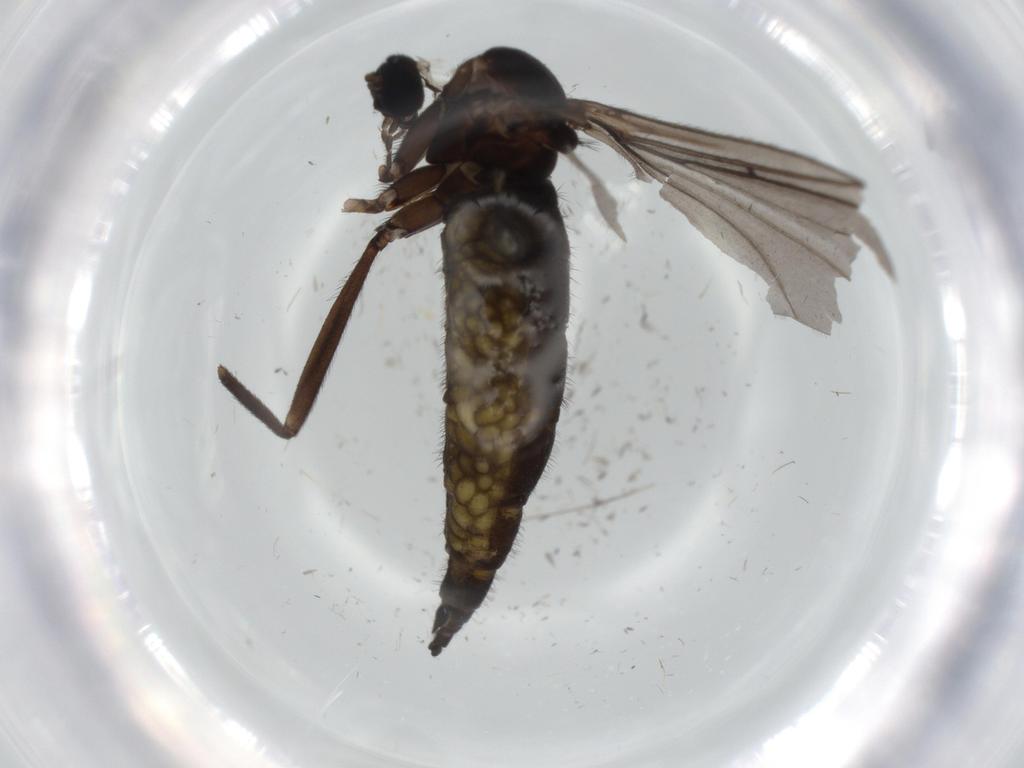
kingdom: Animalia
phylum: Arthropoda
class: Insecta
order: Diptera
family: Sciaridae
